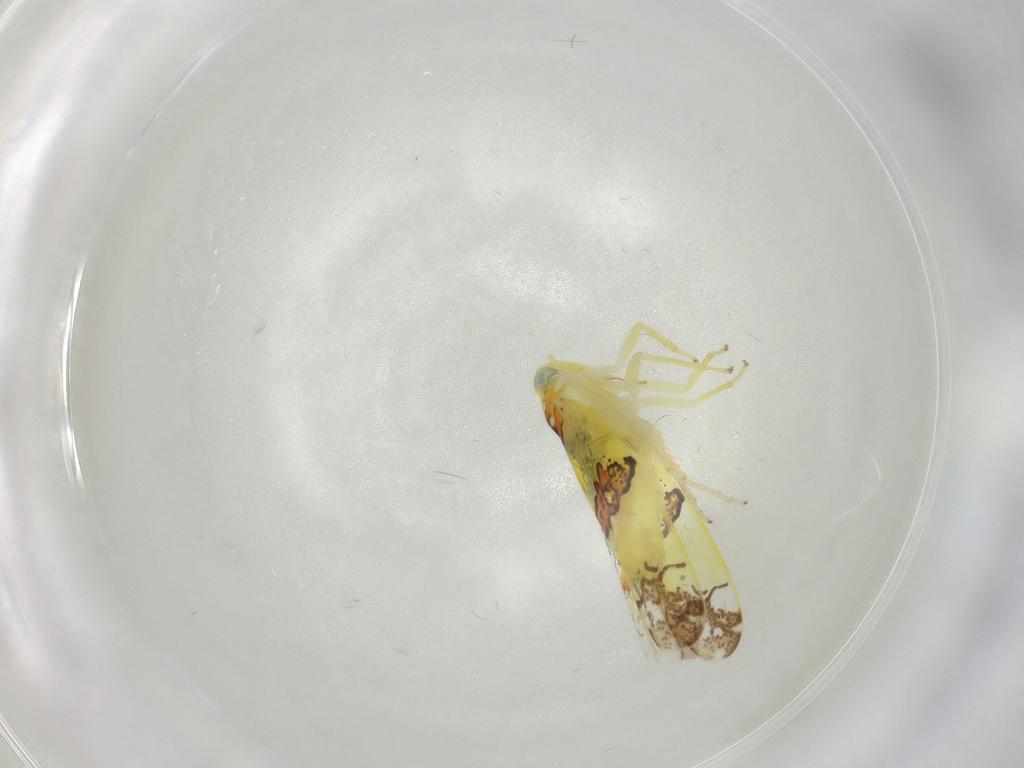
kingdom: Animalia
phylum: Arthropoda
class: Insecta
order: Hemiptera
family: Cicadellidae
